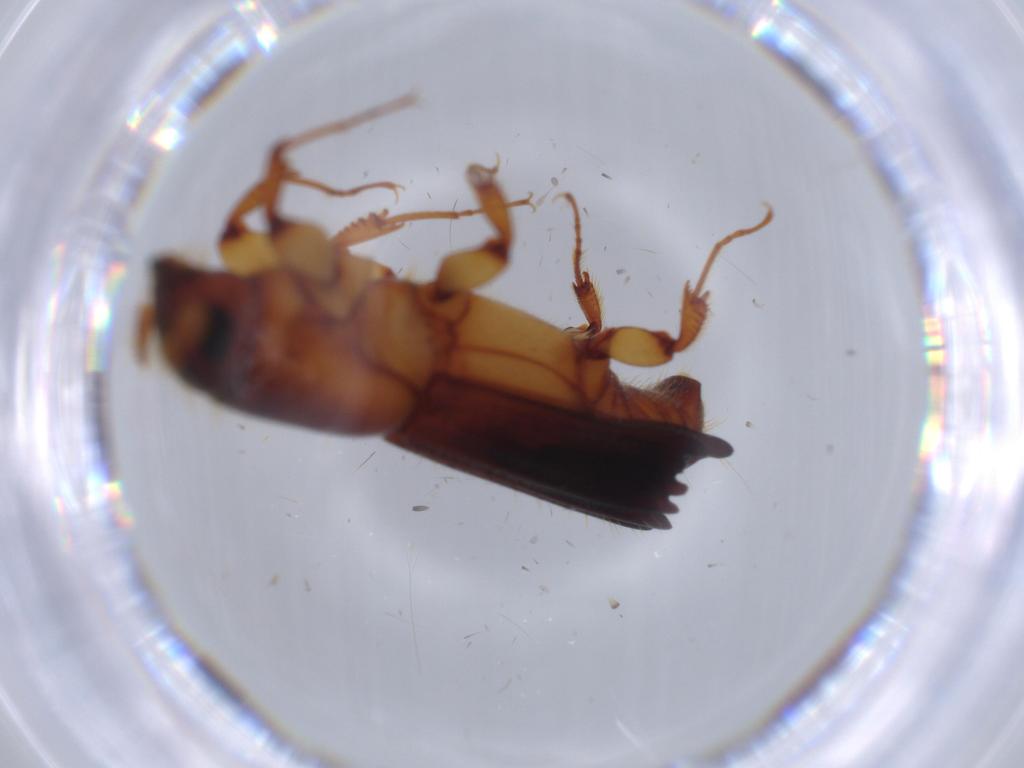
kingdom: Animalia
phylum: Arthropoda
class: Insecta
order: Coleoptera
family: Curculionidae
